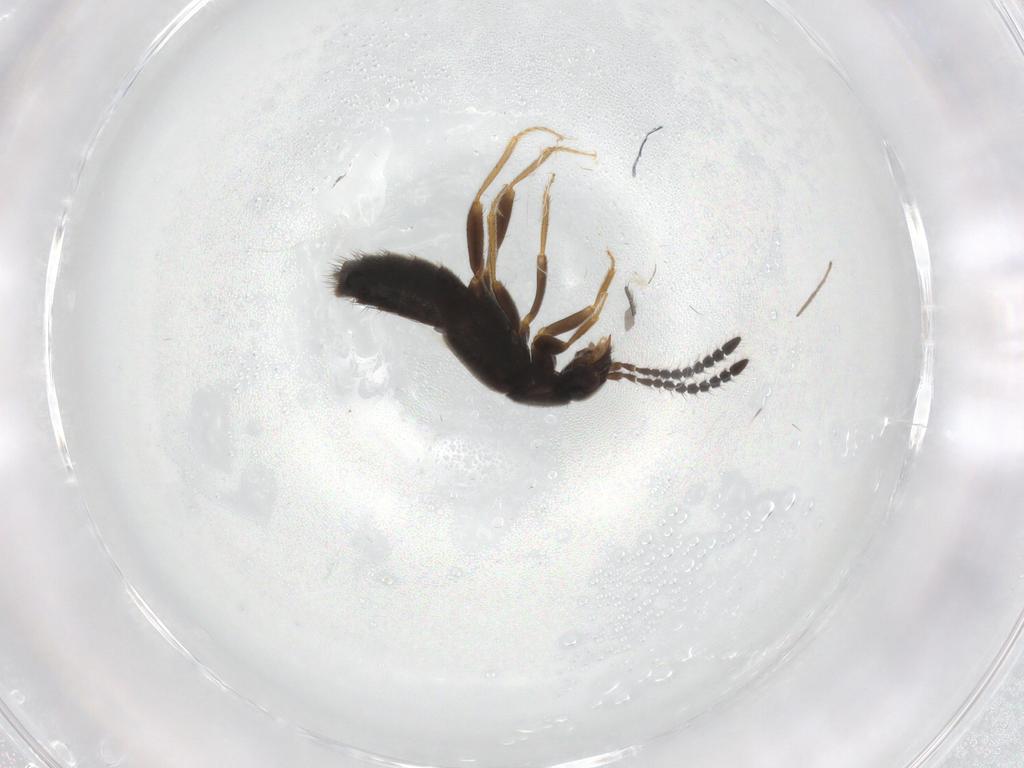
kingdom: Animalia
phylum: Arthropoda
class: Insecta
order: Coleoptera
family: Staphylinidae
